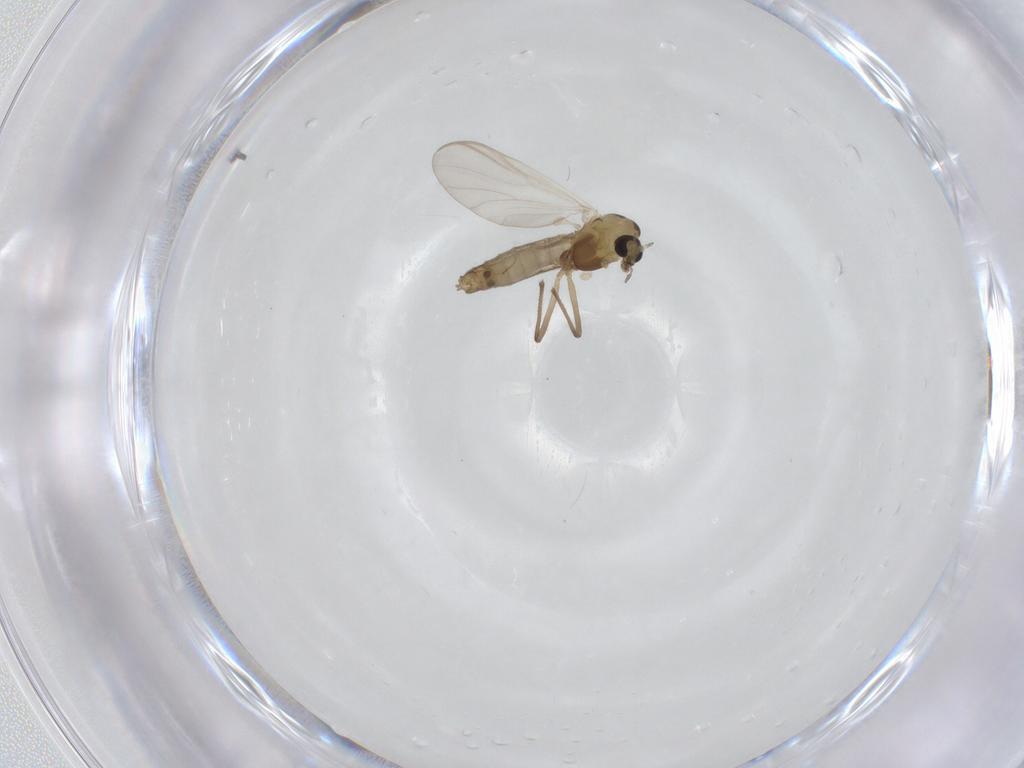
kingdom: Animalia
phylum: Arthropoda
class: Insecta
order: Diptera
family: Chironomidae
